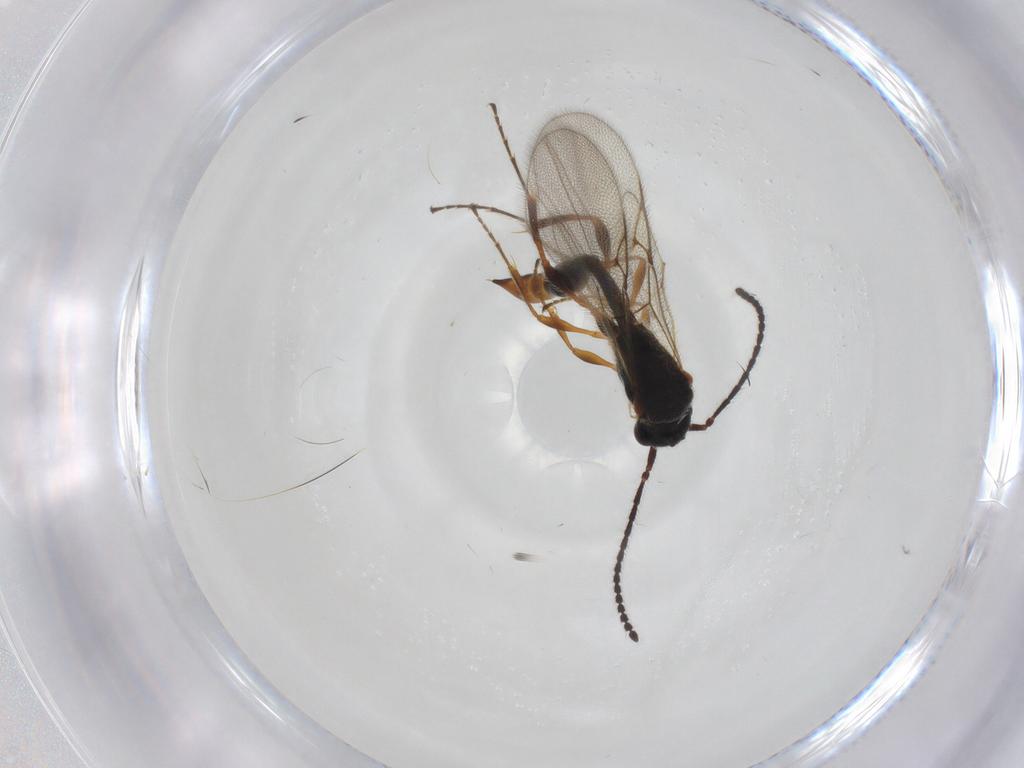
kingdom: Animalia
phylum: Arthropoda
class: Insecta
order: Hymenoptera
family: Diapriidae
